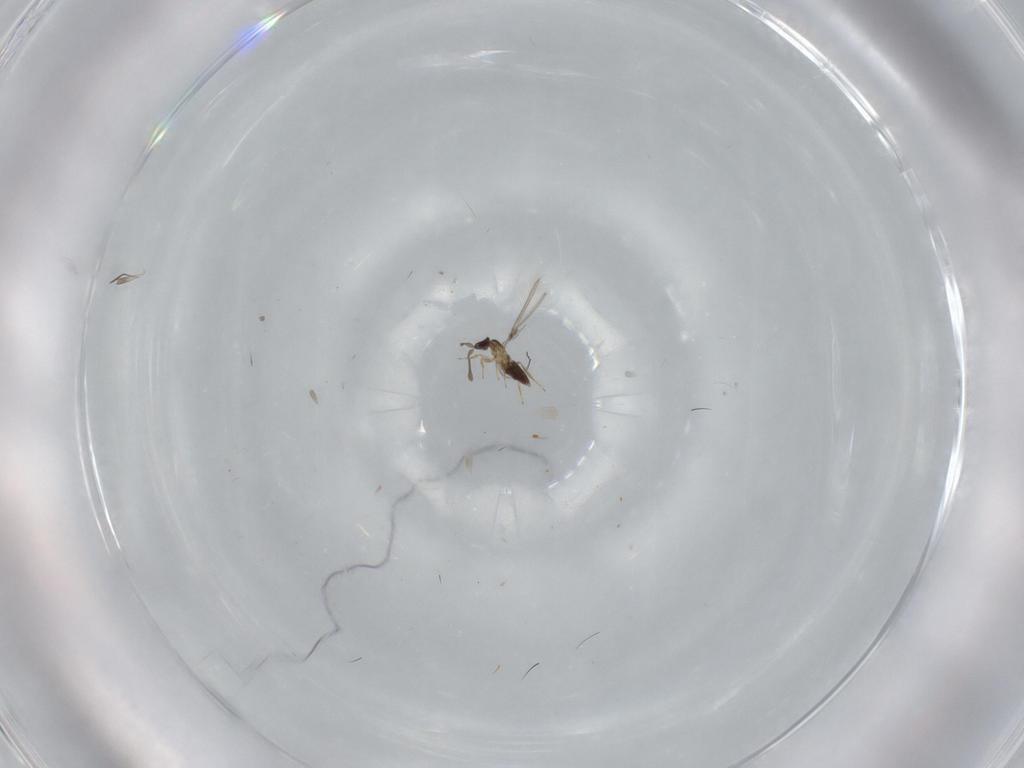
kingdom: Animalia
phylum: Arthropoda
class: Insecta
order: Hymenoptera
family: Mymaridae
